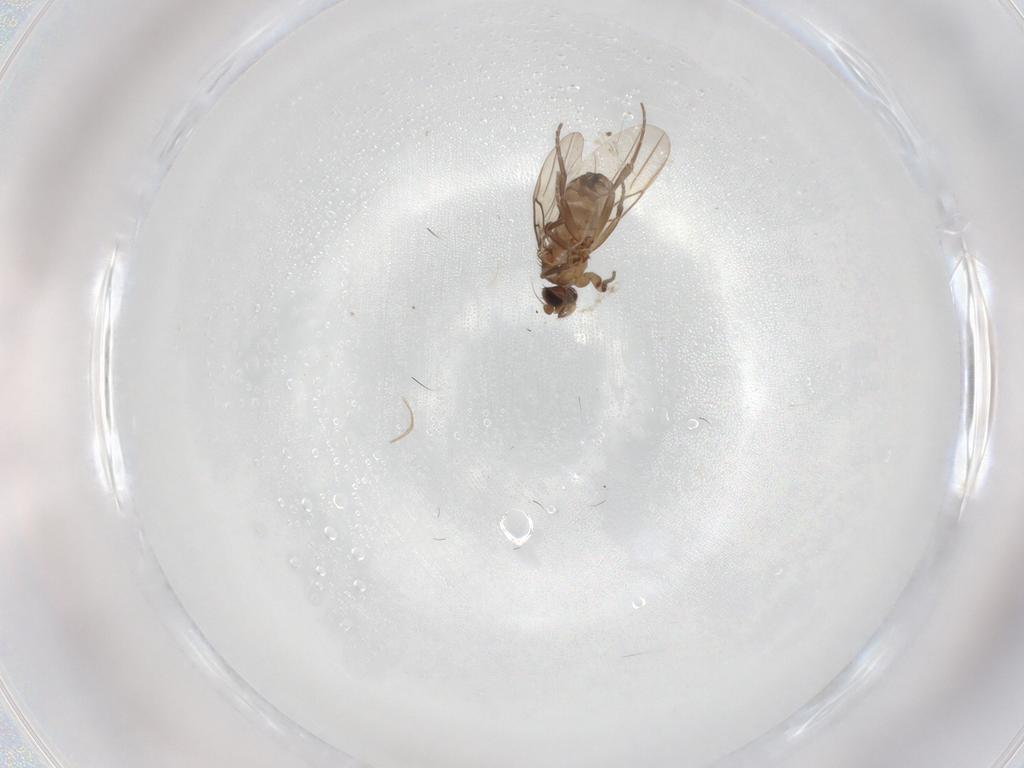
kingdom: Animalia
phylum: Arthropoda
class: Insecta
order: Diptera
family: Phoridae
